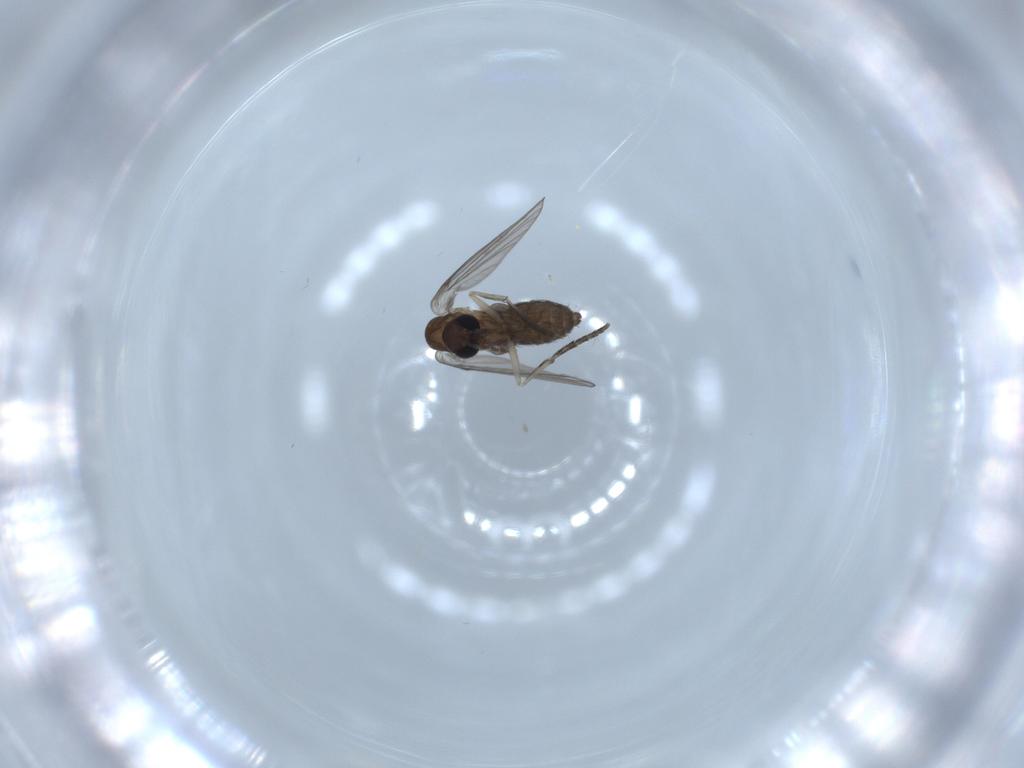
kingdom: Animalia
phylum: Arthropoda
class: Insecta
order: Diptera
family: Psychodidae
